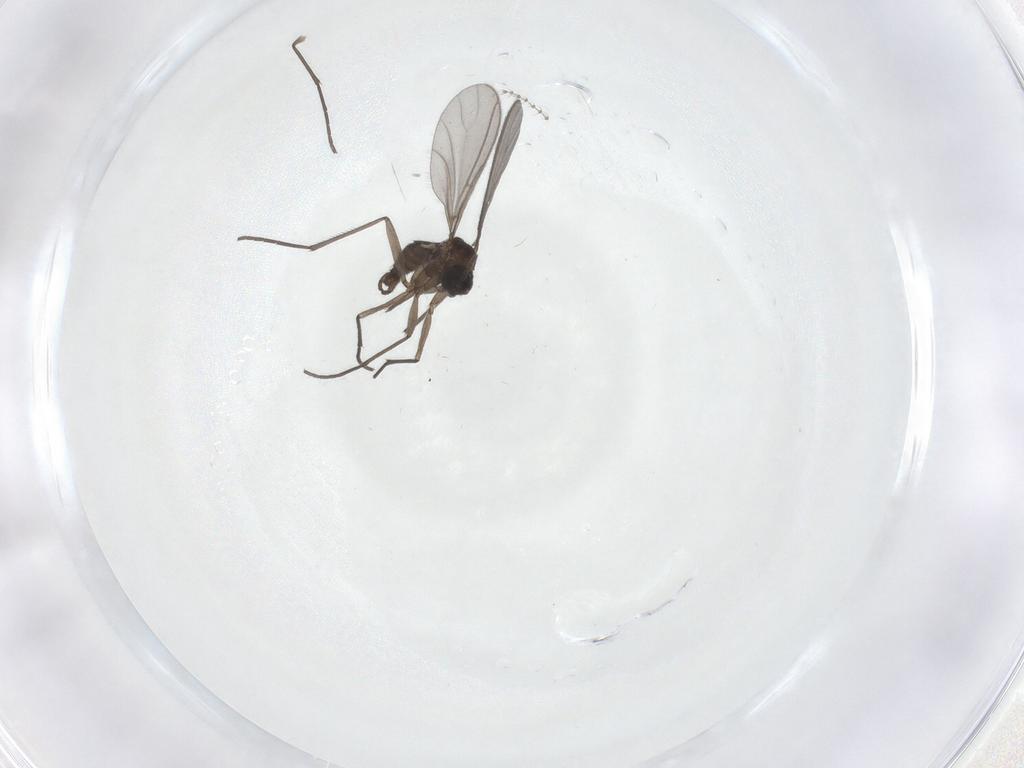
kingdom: Animalia
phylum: Arthropoda
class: Insecta
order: Diptera
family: Sciaridae
